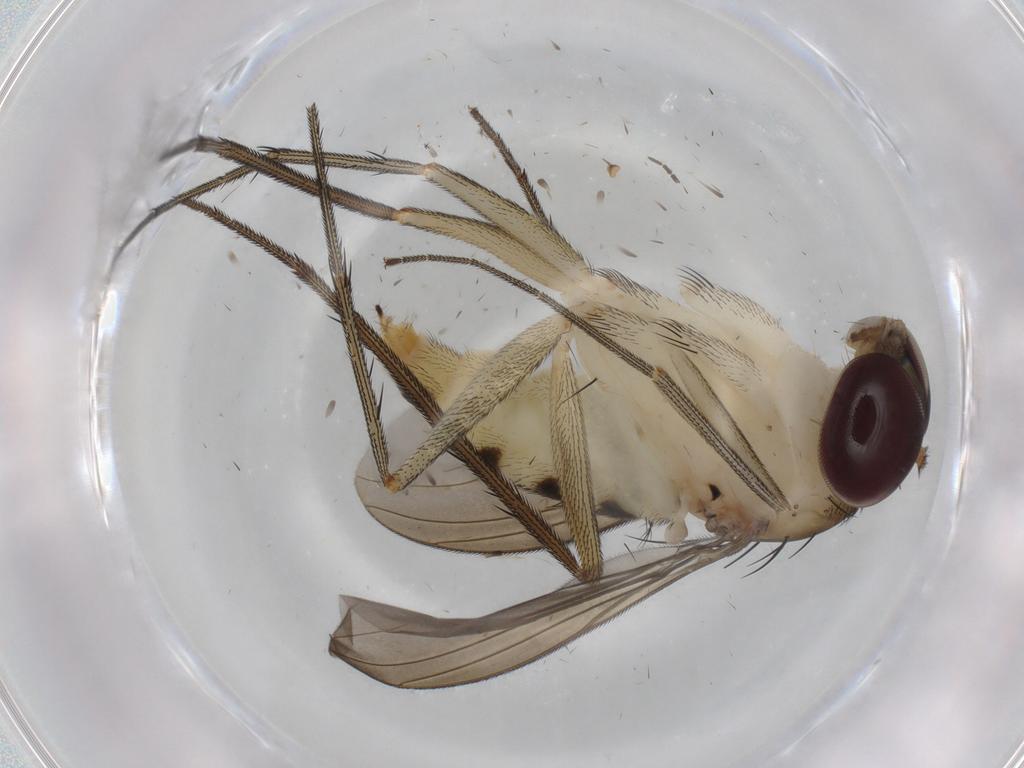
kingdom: Animalia
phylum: Arthropoda
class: Insecta
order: Diptera
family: Dolichopodidae
